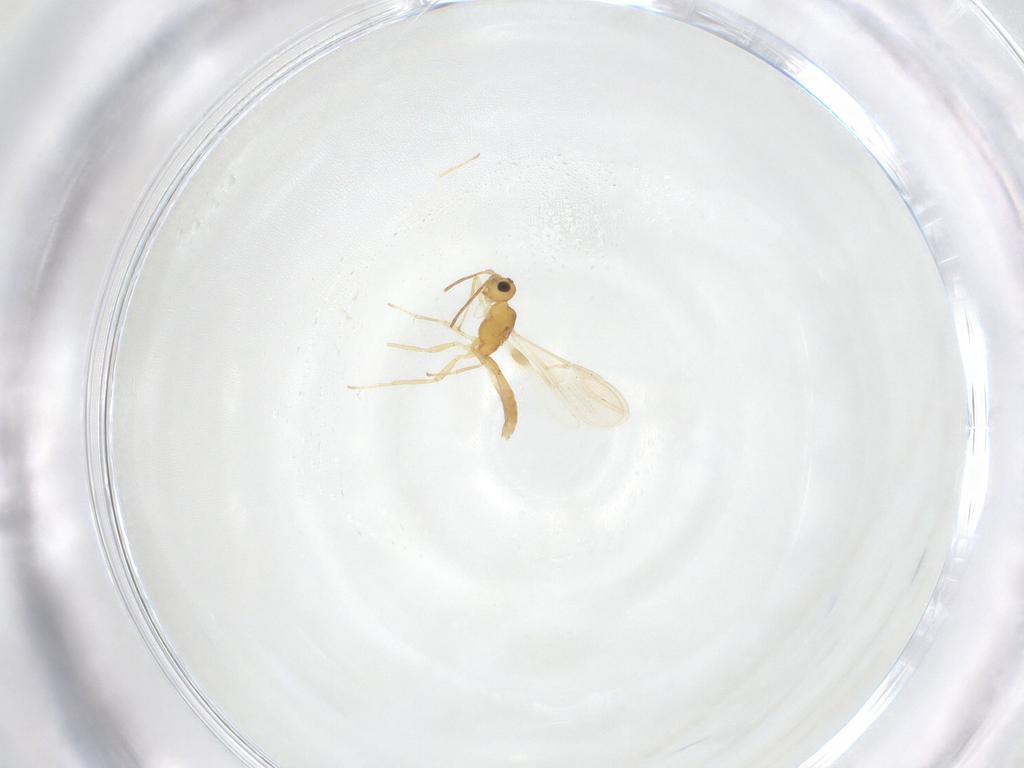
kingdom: Animalia
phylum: Arthropoda
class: Insecta
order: Hymenoptera
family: Braconidae
